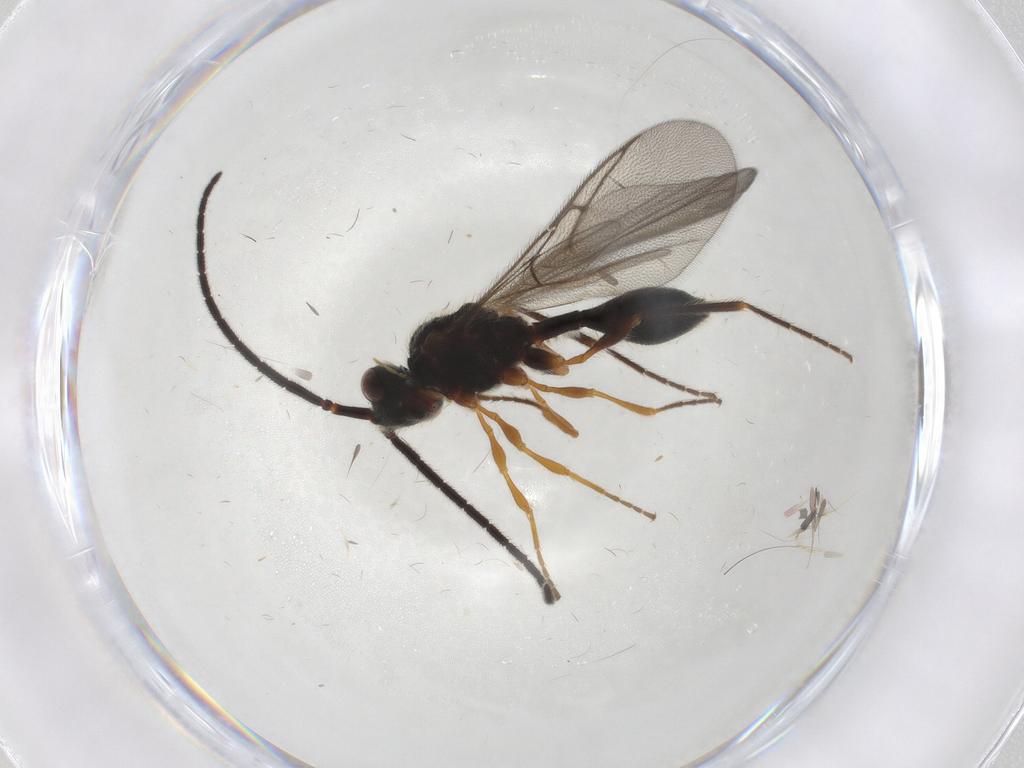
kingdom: Animalia
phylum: Arthropoda
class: Insecta
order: Hymenoptera
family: Diapriidae
